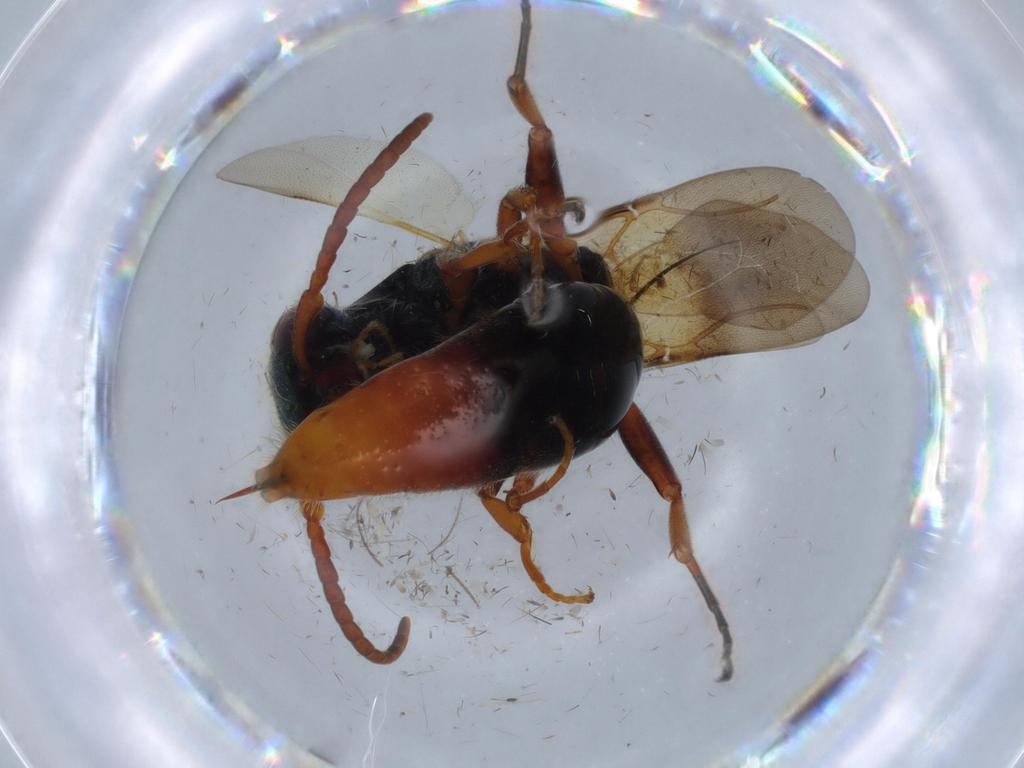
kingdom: Animalia
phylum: Arthropoda
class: Insecta
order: Hymenoptera
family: Bethylidae
